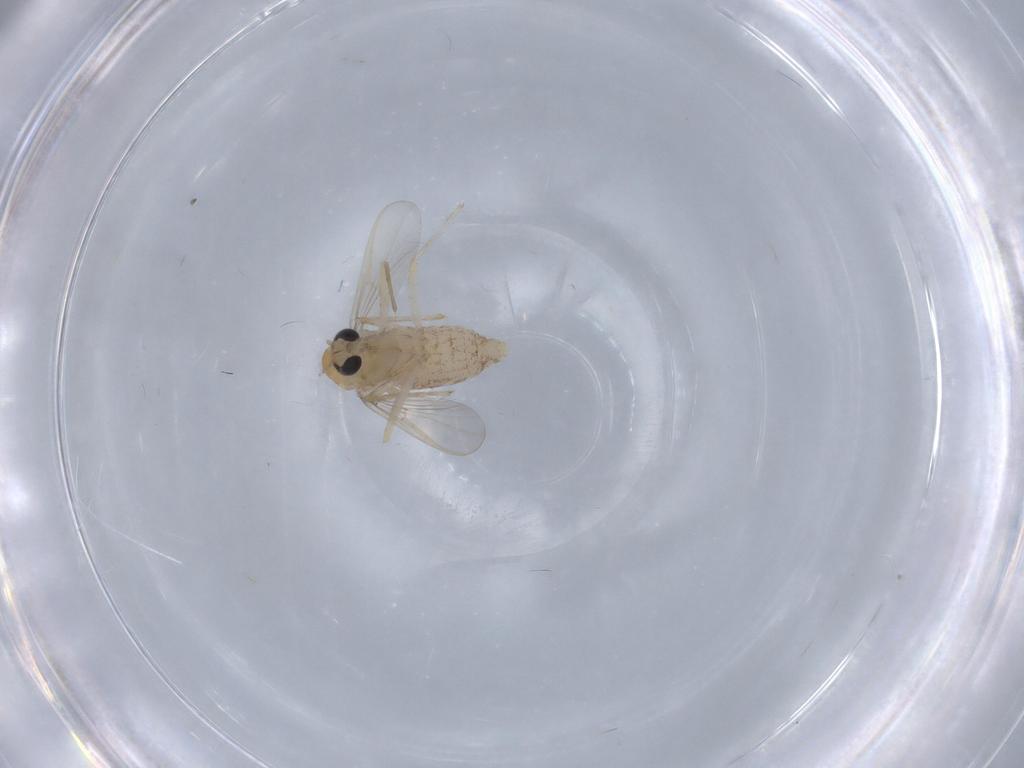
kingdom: Animalia
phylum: Arthropoda
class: Insecta
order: Diptera
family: Chironomidae
